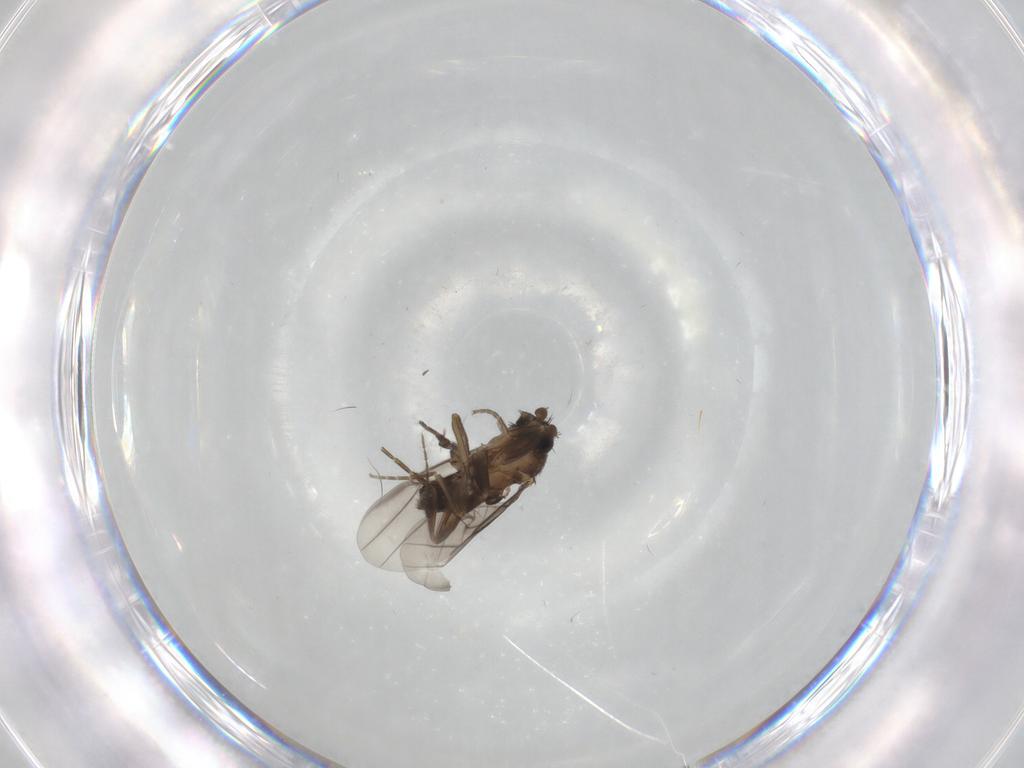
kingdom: Animalia
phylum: Arthropoda
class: Insecta
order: Diptera
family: Ceratopogonidae
